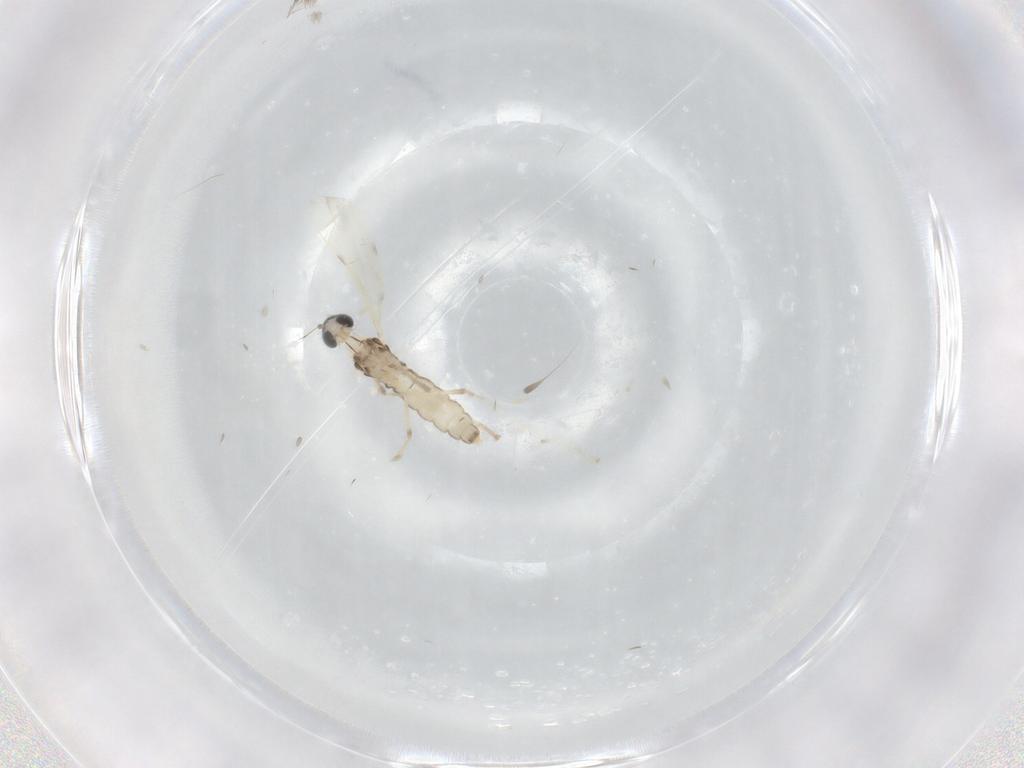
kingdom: Animalia
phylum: Arthropoda
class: Insecta
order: Diptera
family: Cecidomyiidae
